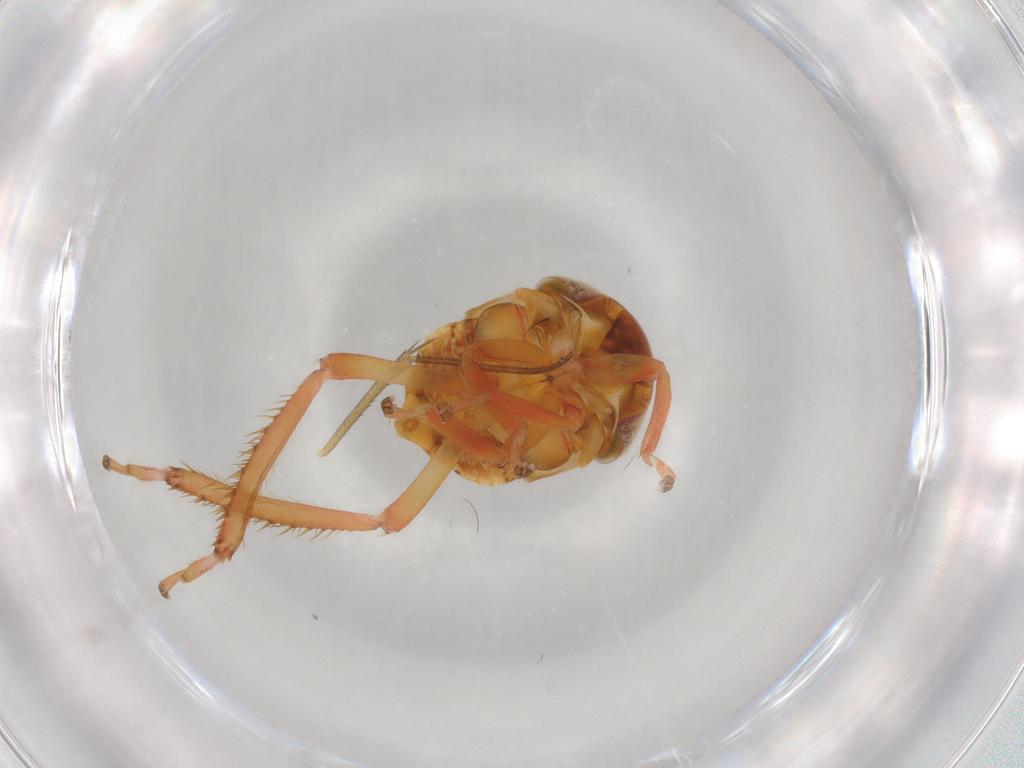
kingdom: Animalia
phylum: Arthropoda
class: Insecta
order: Hemiptera
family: Cicadellidae
